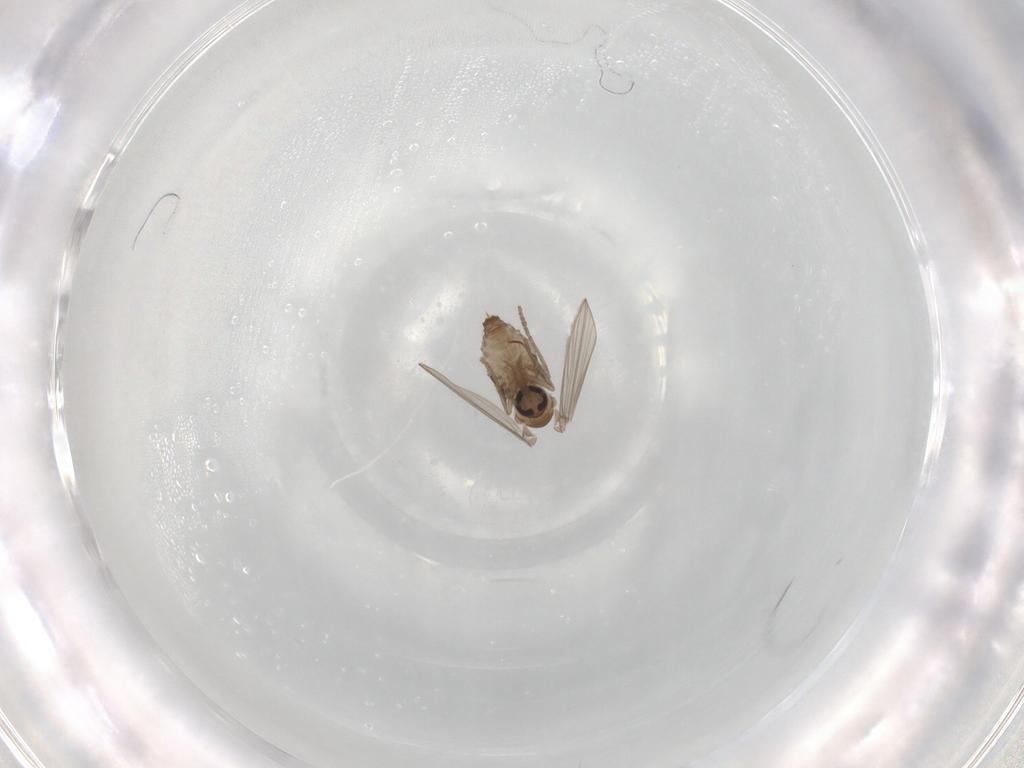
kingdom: Animalia
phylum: Arthropoda
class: Insecta
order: Diptera
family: Psychodidae
